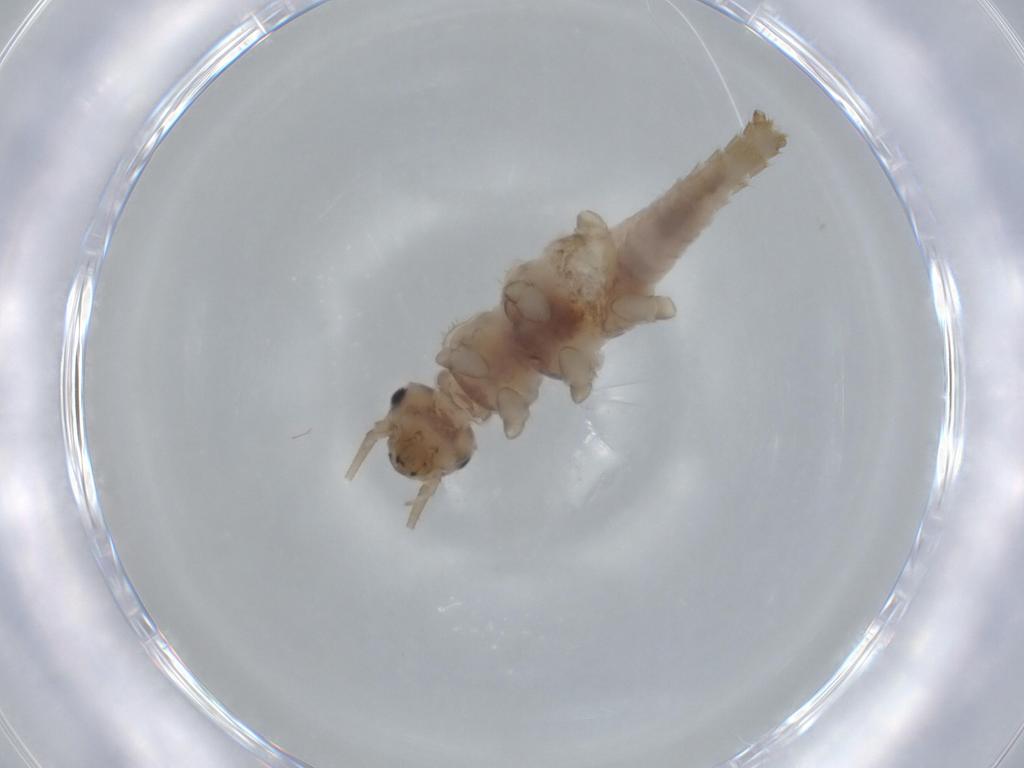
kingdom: Animalia
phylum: Arthropoda
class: Insecta
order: Plecoptera
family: Nemouridae
